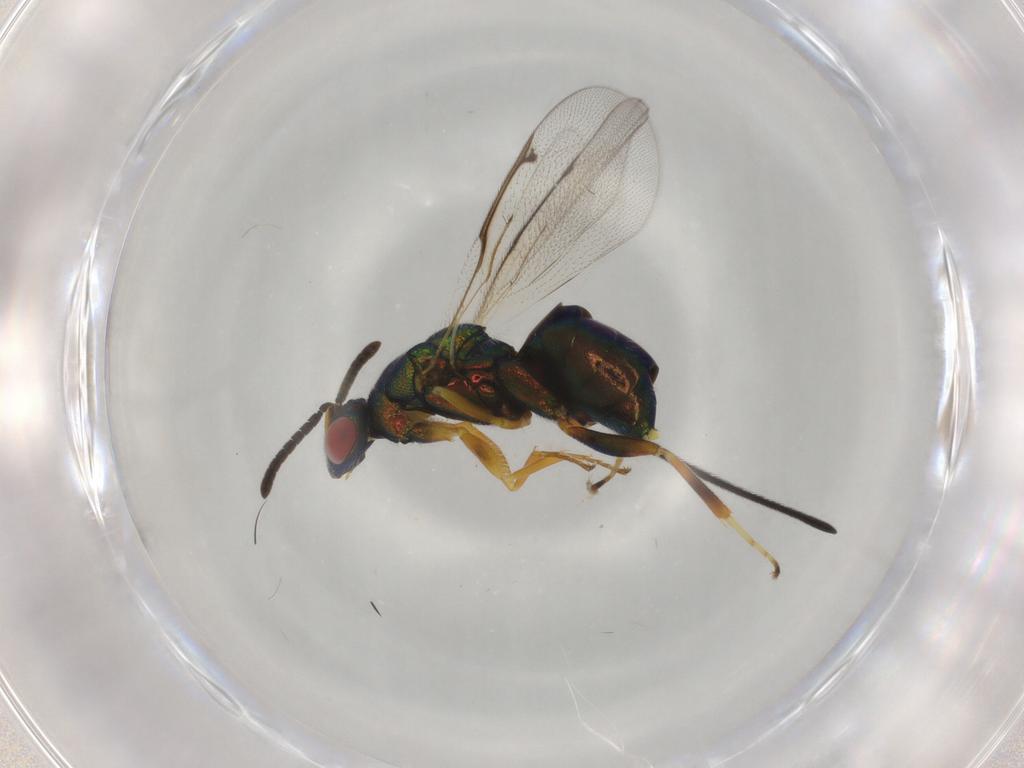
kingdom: Animalia
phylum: Arthropoda
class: Insecta
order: Hymenoptera
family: Torymidae
